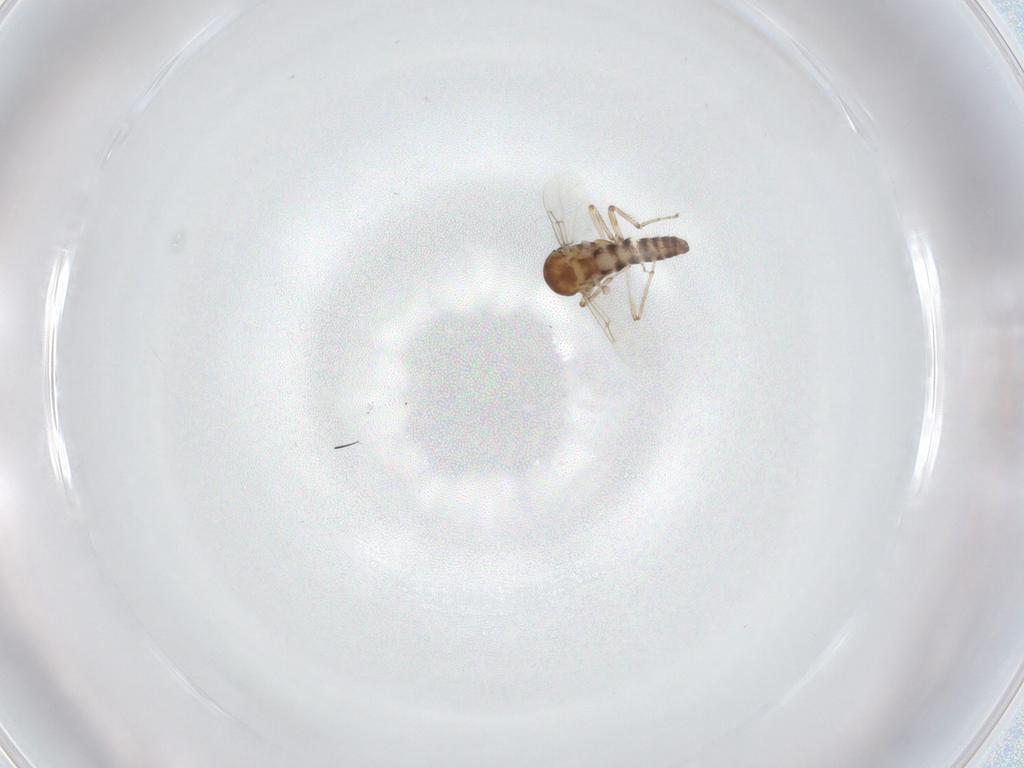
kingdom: Animalia
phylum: Arthropoda
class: Insecta
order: Diptera
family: Ceratopogonidae
